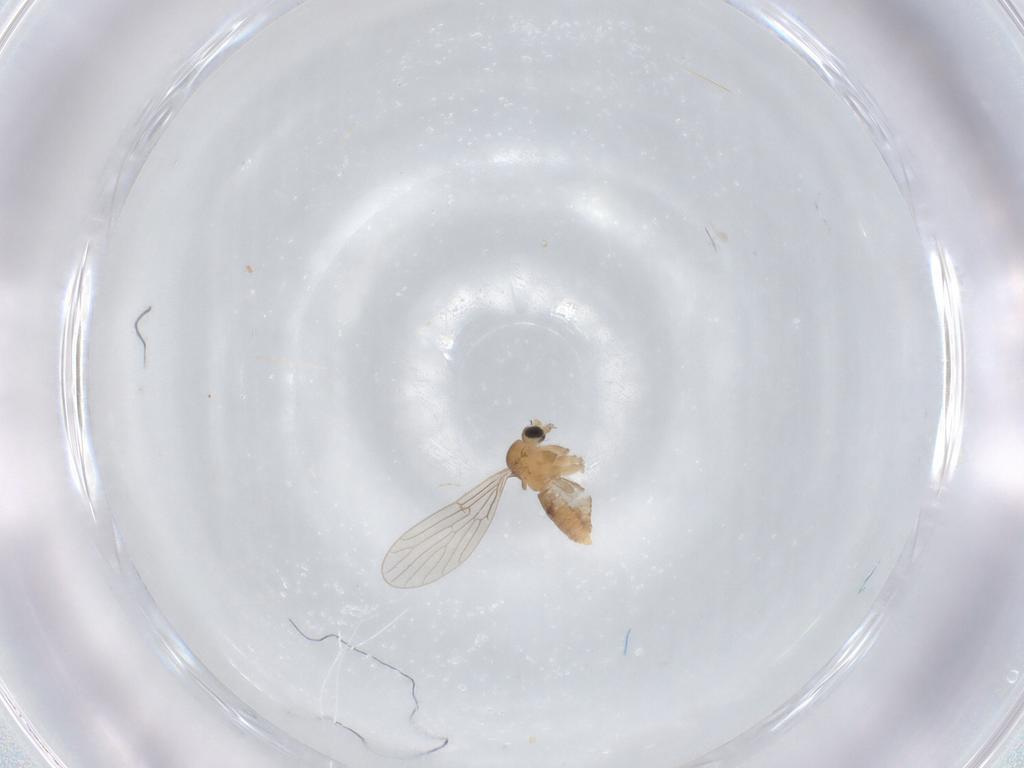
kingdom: Animalia
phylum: Arthropoda
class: Insecta
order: Diptera
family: Psychodidae
